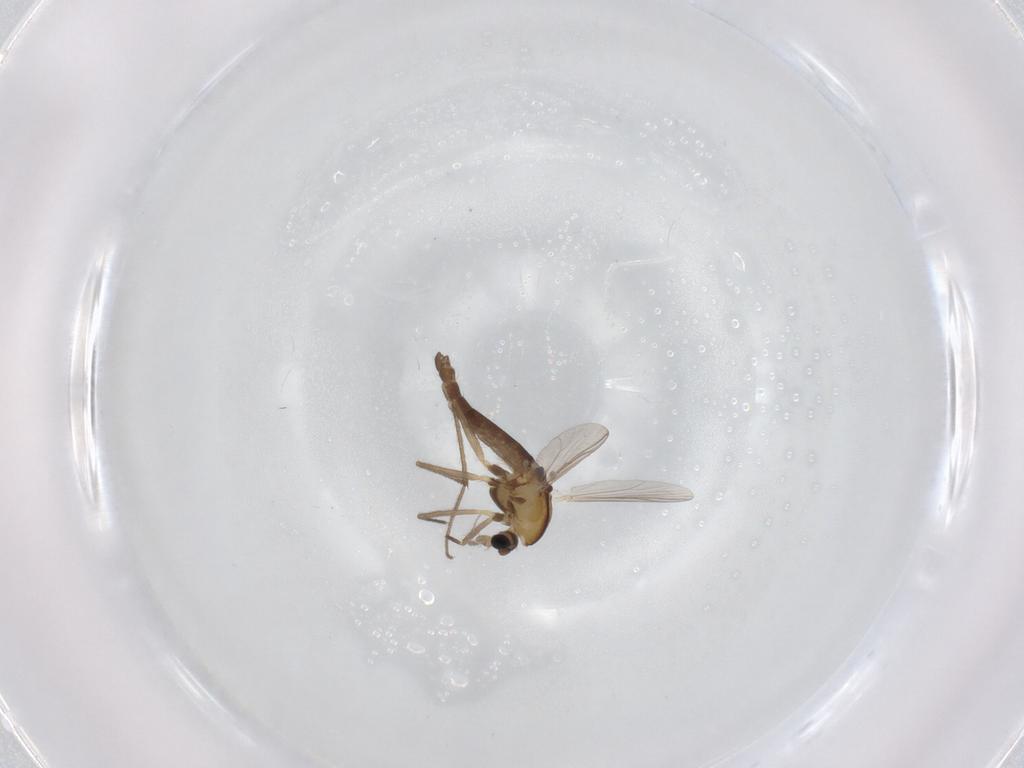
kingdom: Animalia
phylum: Arthropoda
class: Insecta
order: Diptera
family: Chironomidae
